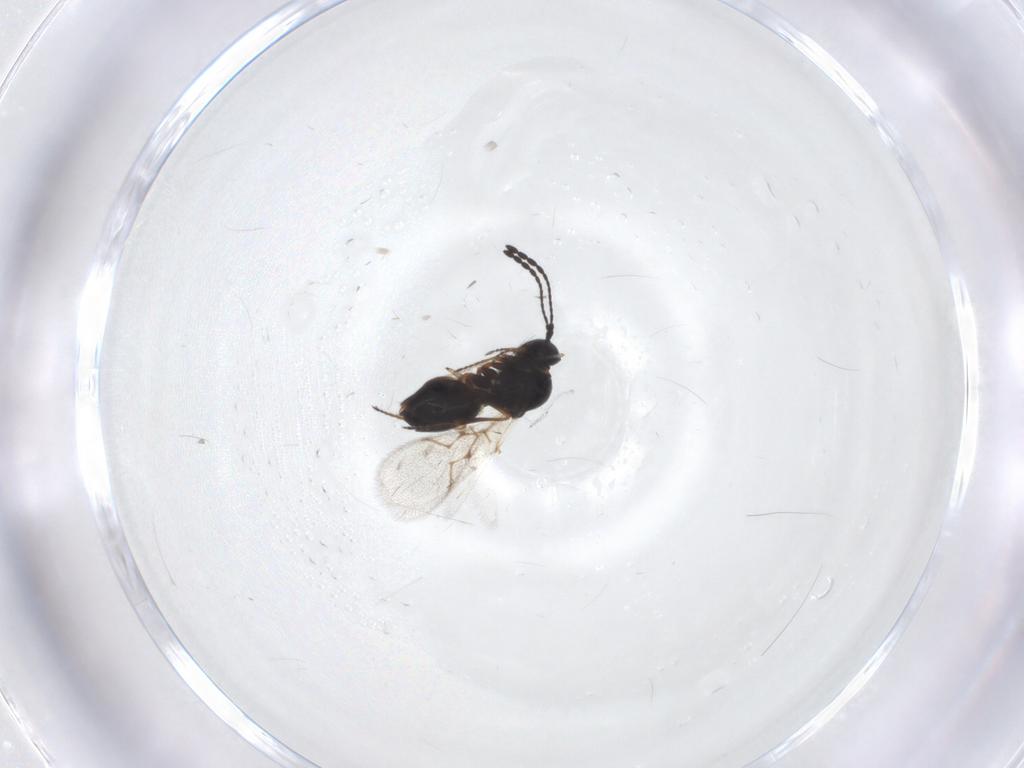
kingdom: Animalia
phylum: Arthropoda
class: Insecta
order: Hymenoptera
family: Figitidae
